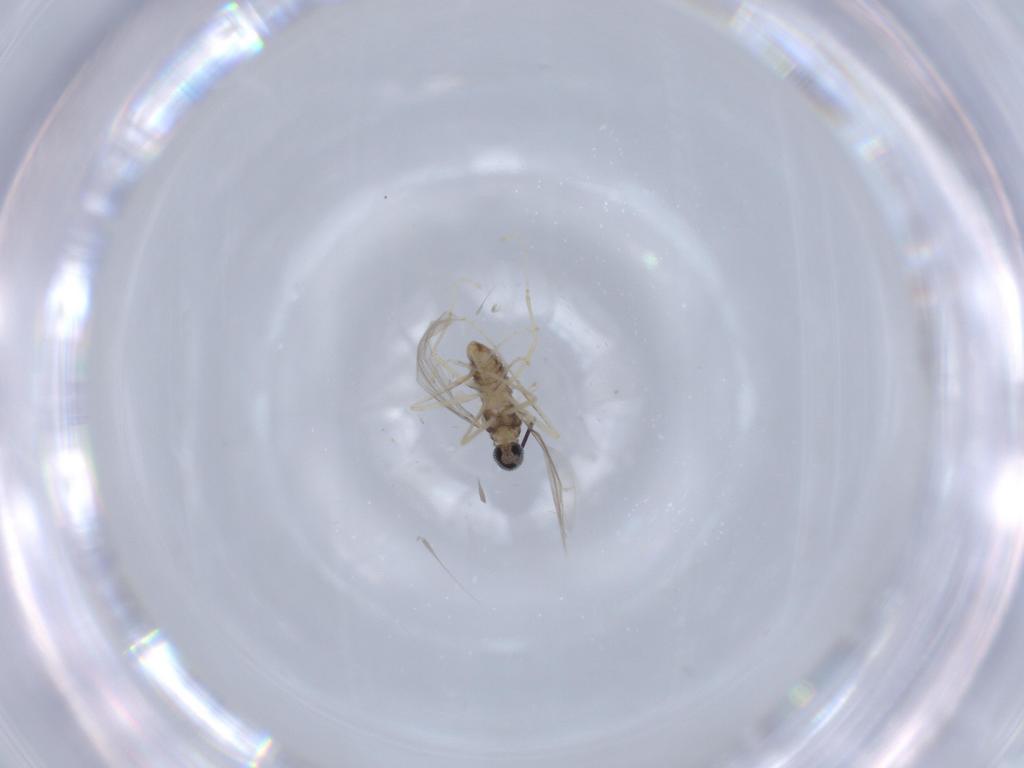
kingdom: Animalia
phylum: Arthropoda
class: Insecta
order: Diptera
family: Cecidomyiidae
